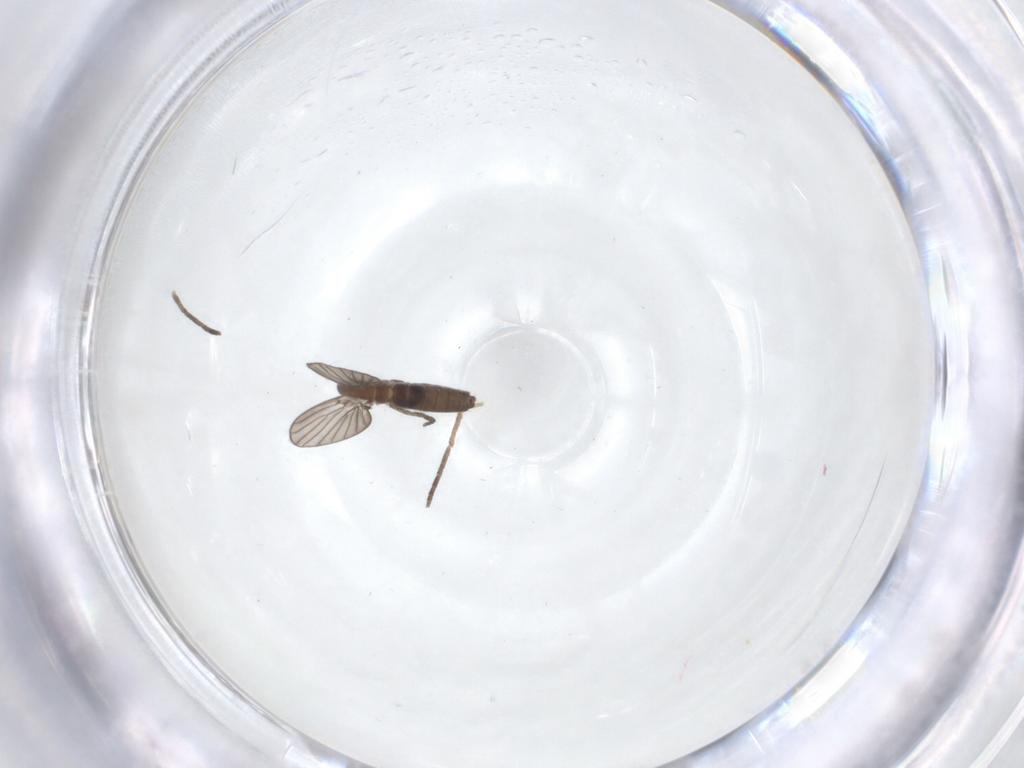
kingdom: Animalia
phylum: Arthropoda
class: Insecta
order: Diptera
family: Psychodidae
